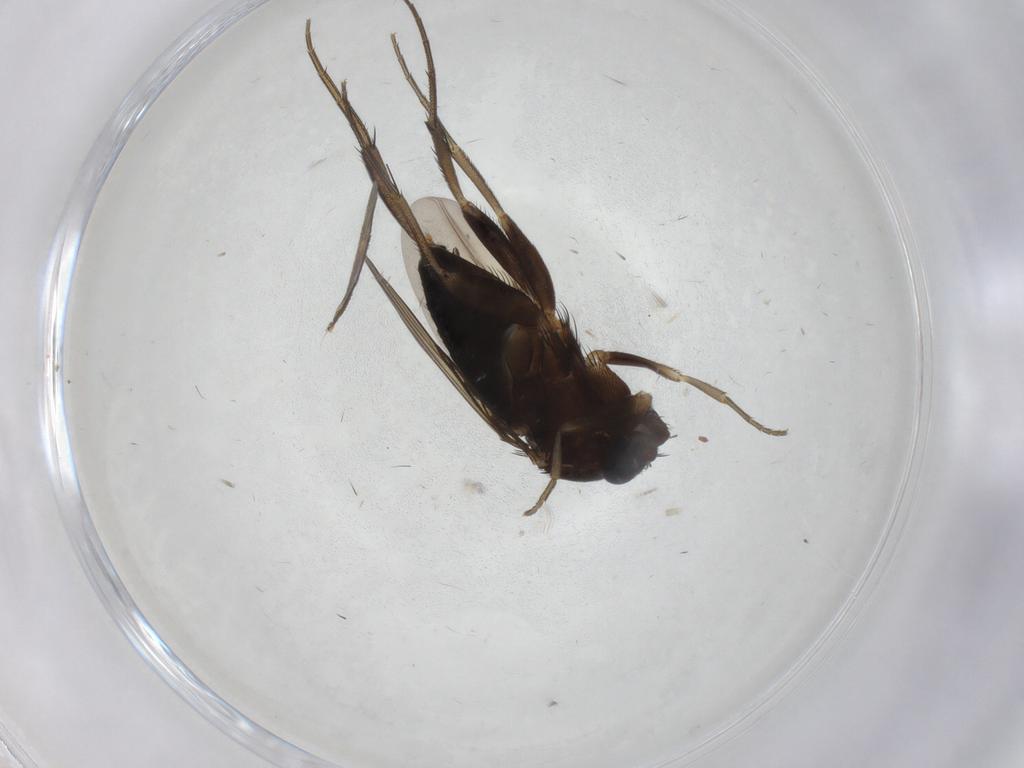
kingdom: Animalia
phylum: Arthropoda
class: Insecta
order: Diptera
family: Phoridae
